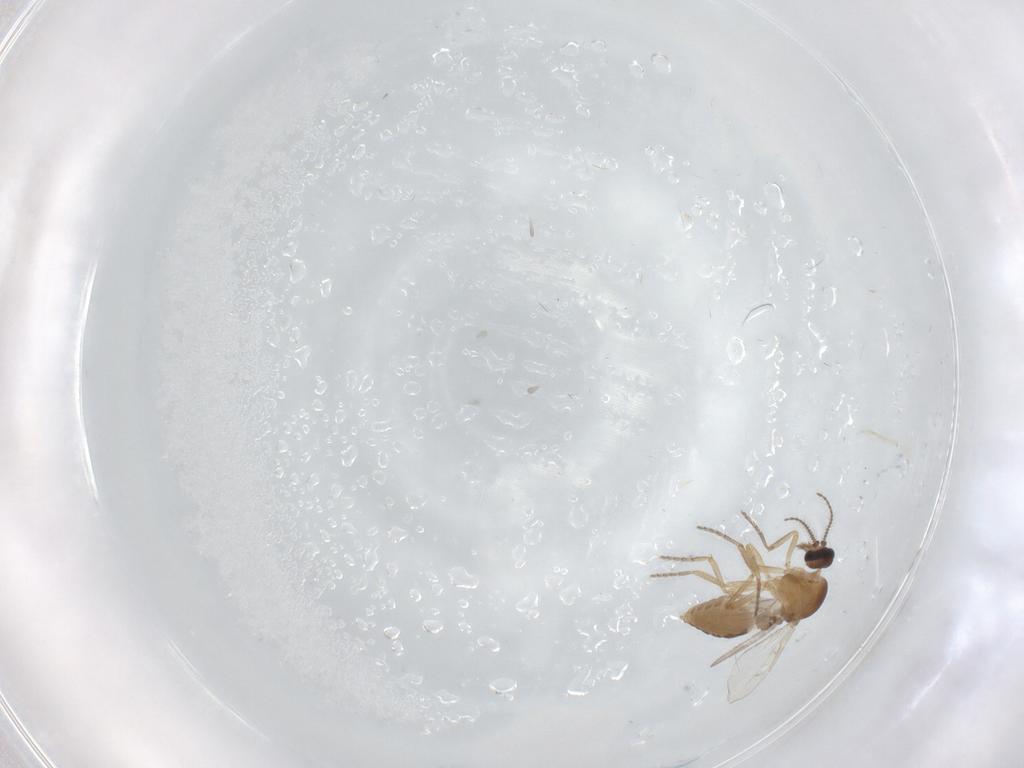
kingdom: Animalia
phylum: Arthropoda
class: Insecta
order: Diptera
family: Ceratopogonidae
